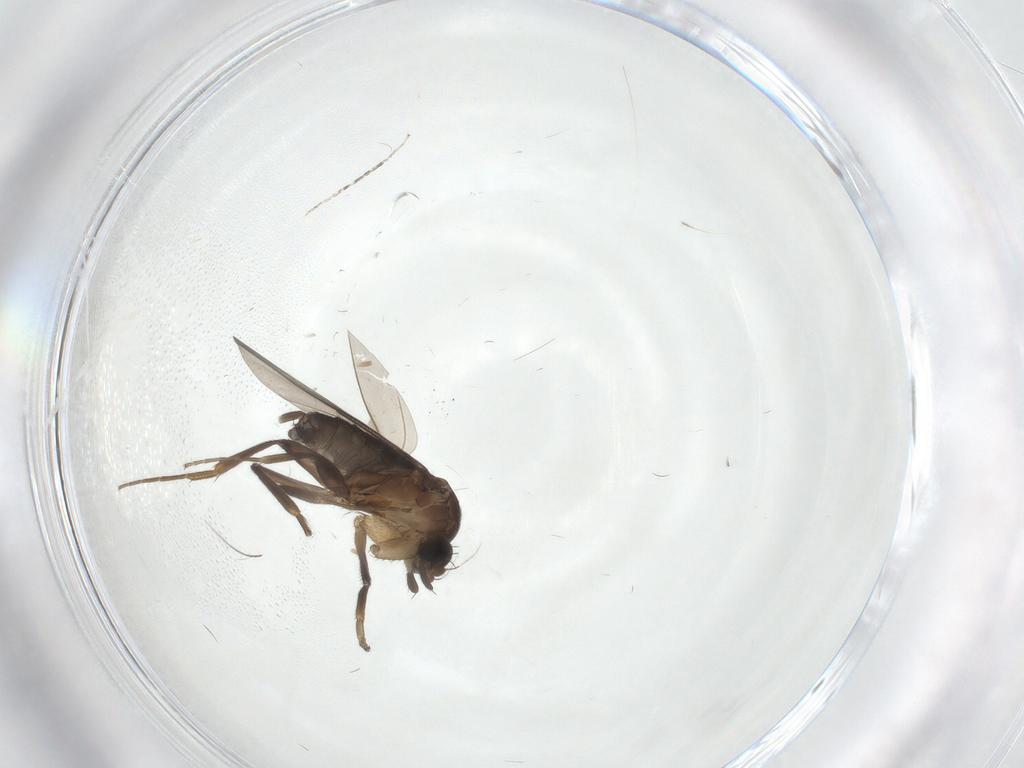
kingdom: Animalia
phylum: Arthropoda
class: Insecta
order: Diptera
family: Phoridae
